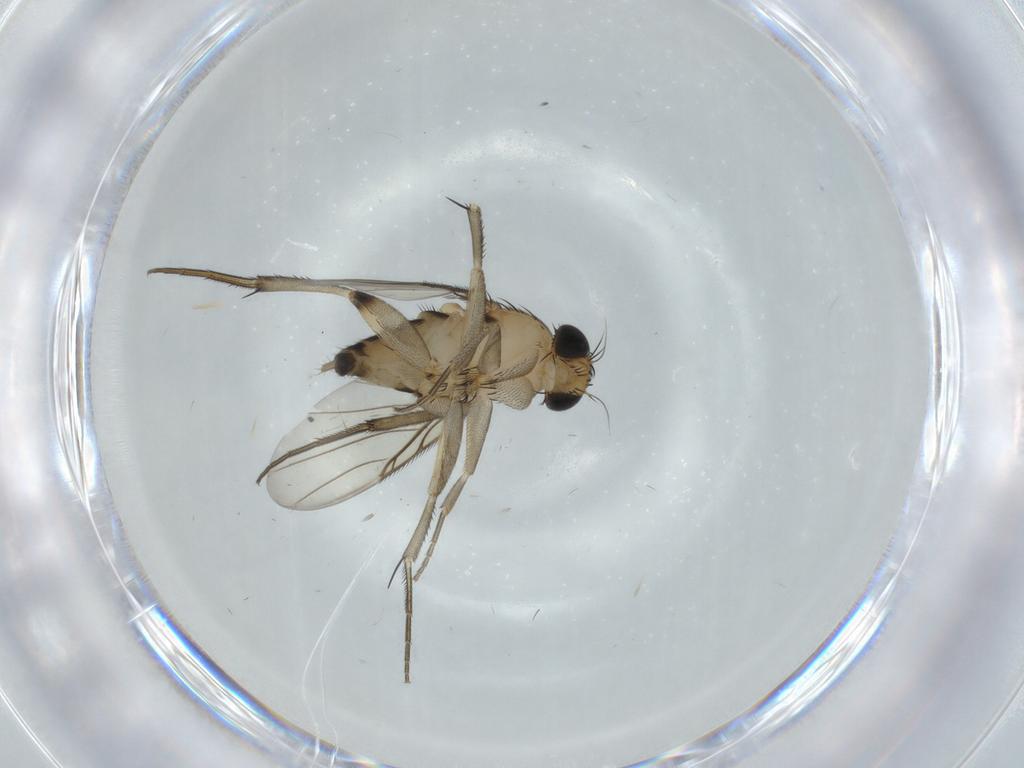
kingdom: Animalia
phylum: Arthropoda
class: Insecta
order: Diptera
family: Phoridae
